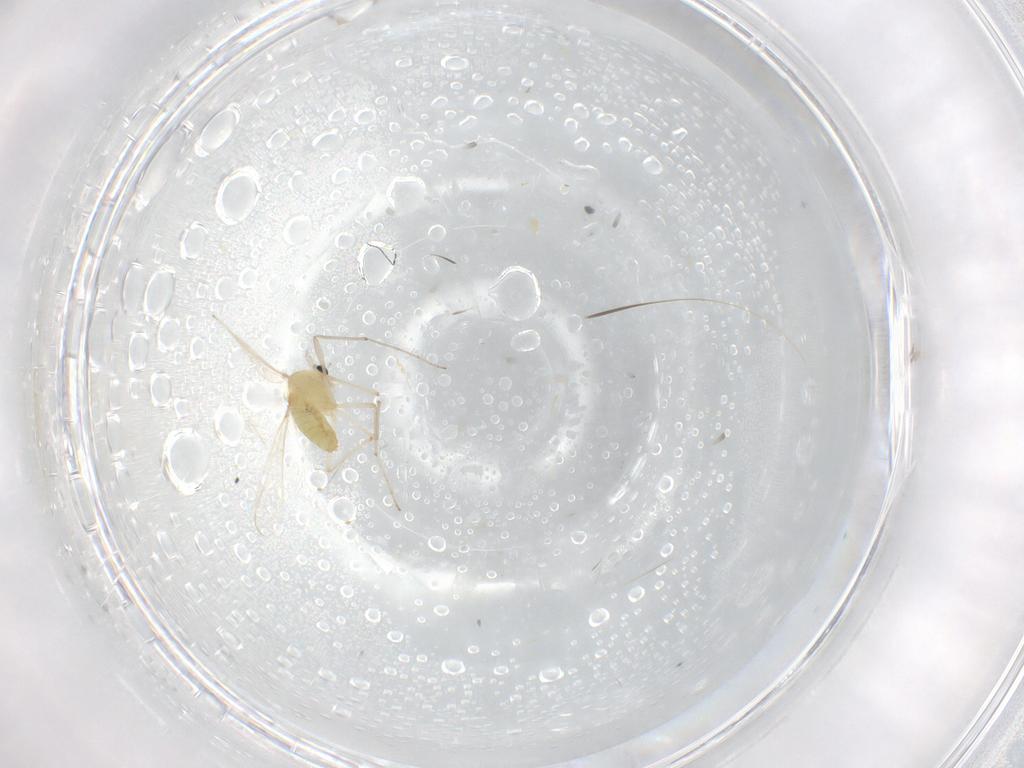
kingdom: Animalia
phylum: Arthropoda
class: Insecta
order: Diptera
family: Chironomidae
